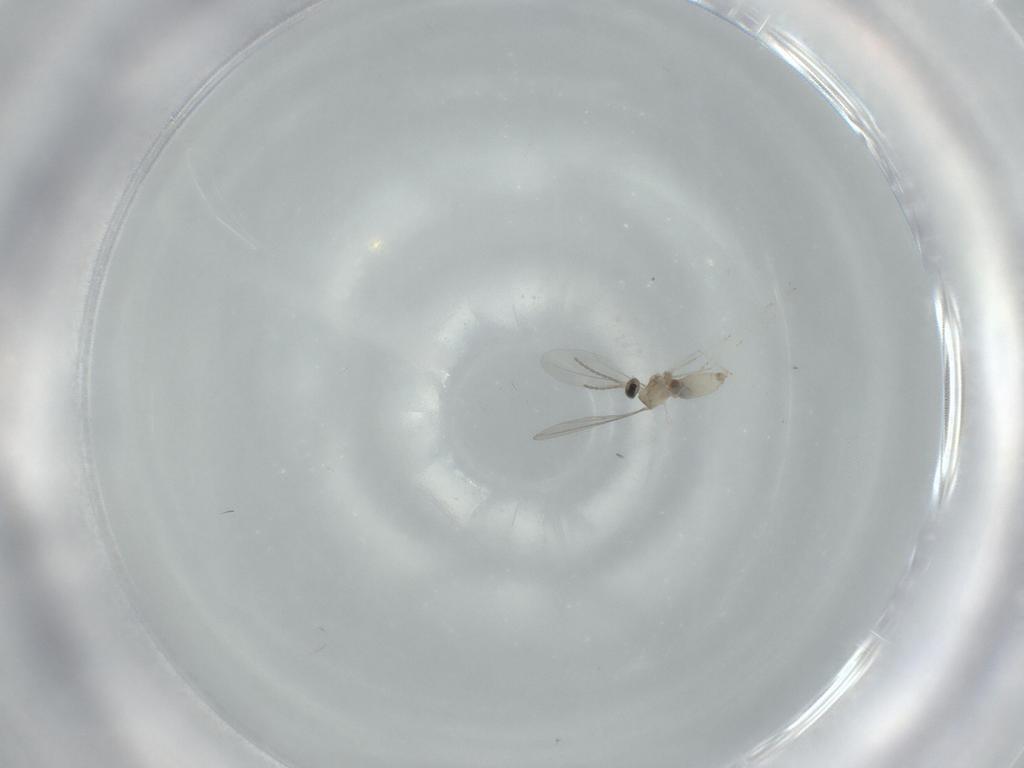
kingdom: Animalia
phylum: Arthropoda
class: Insecta
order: Diptera
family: Cecidomyiidae
